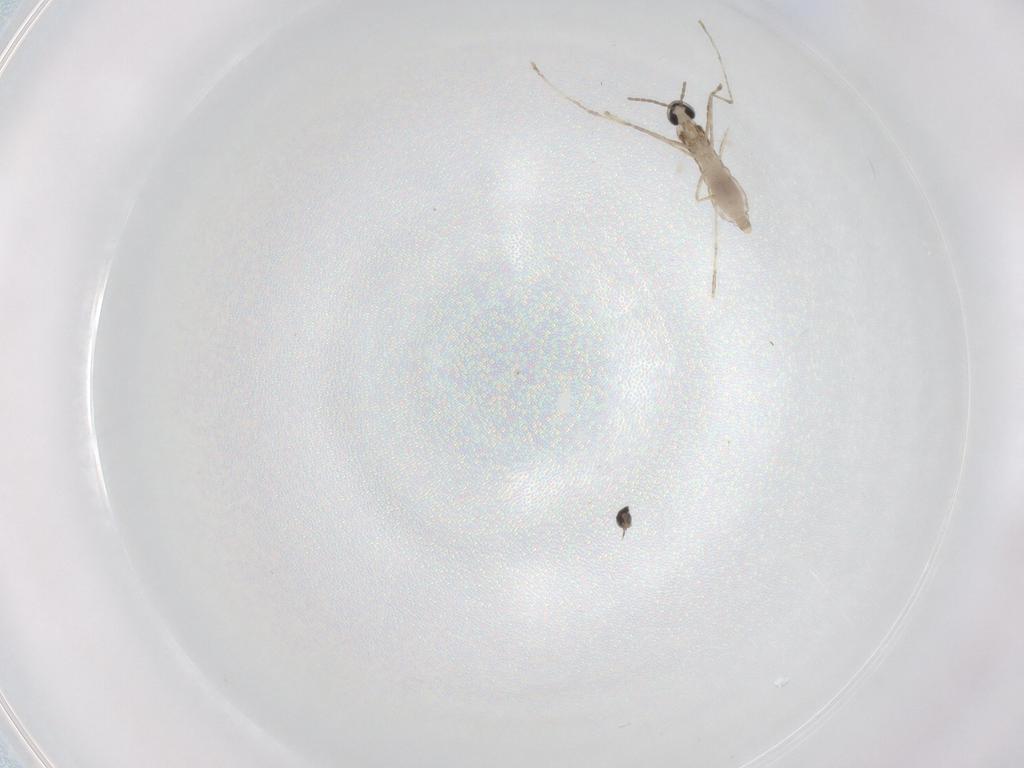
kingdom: Animalia
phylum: Arthropoda
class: Insecta
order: Diptera
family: Cecidomyiidae
